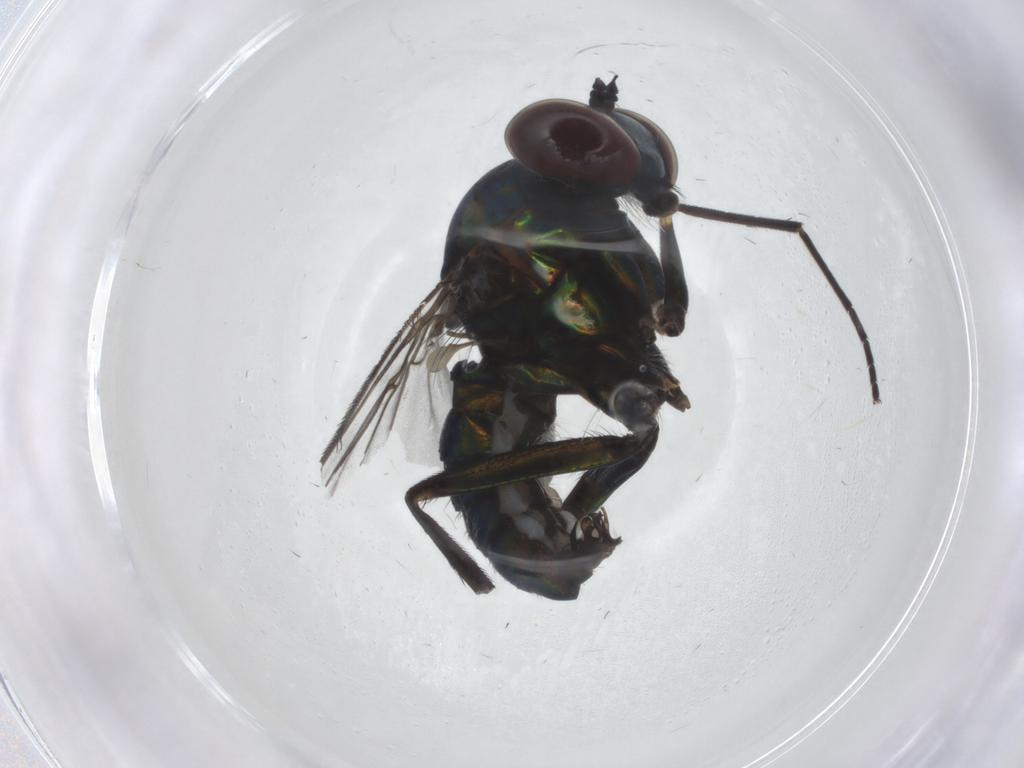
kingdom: Animalia
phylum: Arthropoda
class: Insecta
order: Diptera
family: Dolichopodidae
